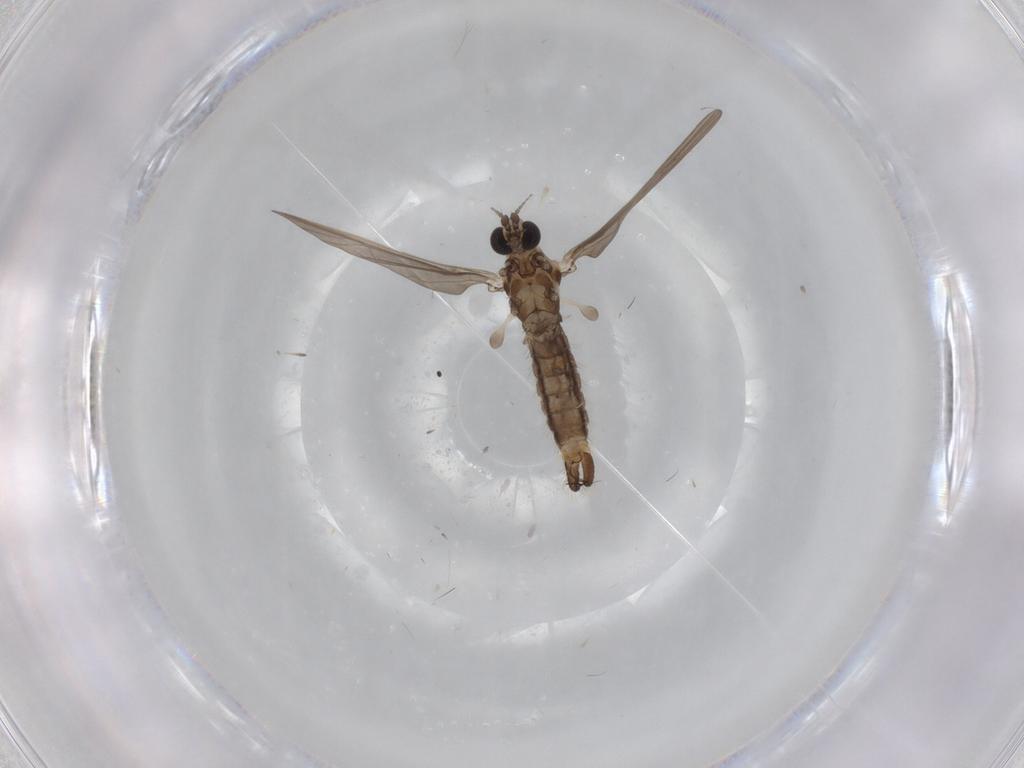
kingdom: Animalia
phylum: Arthropoda
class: Insecta
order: Diptera
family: Limoniidae
